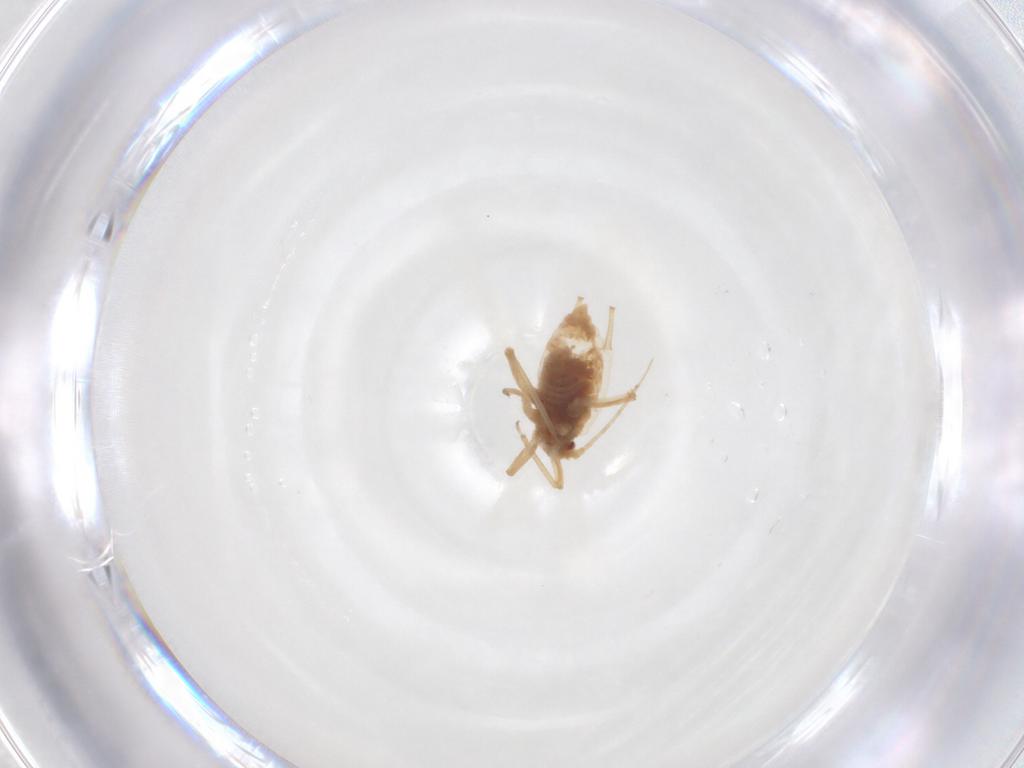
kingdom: Animalia
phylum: Arthropoda
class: Insecta
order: Hemiptera
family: Aphididae
